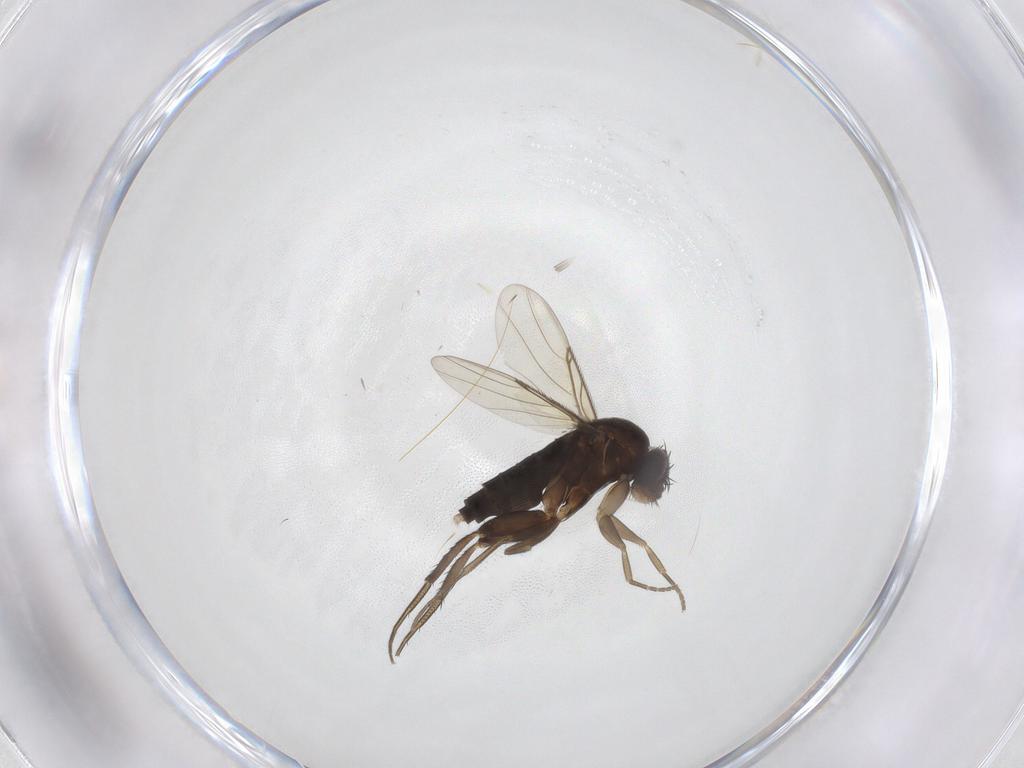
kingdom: Animalia
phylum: Arthropoda
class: Insecta
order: Diptera
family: Phoridae
